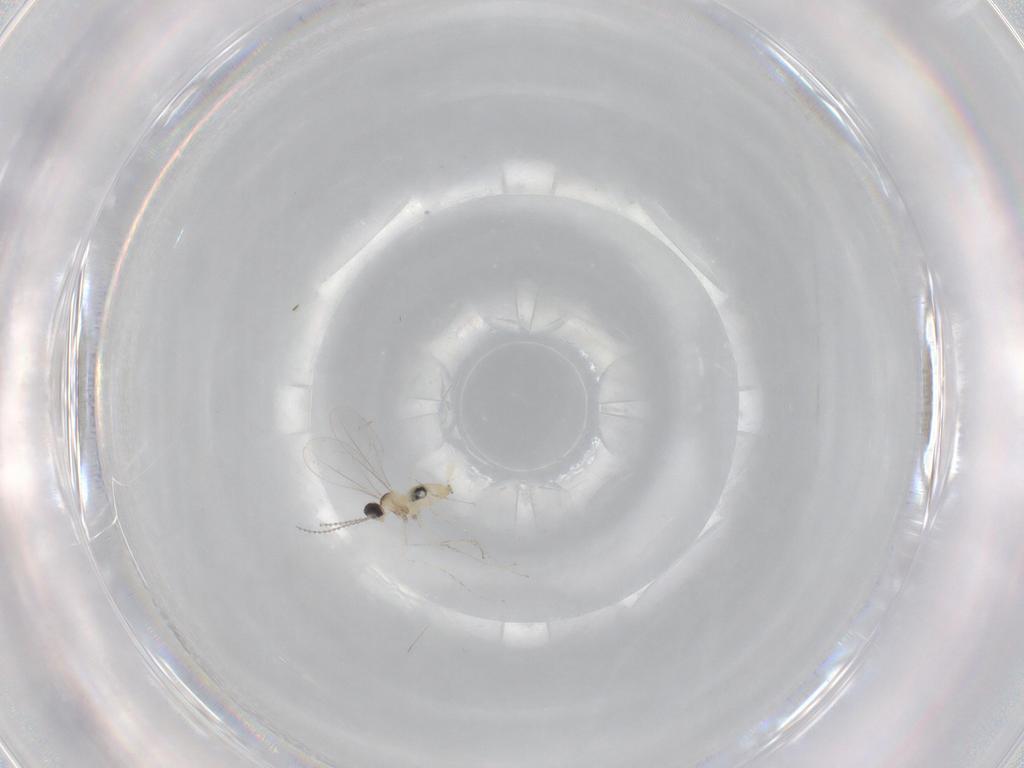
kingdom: Animalia
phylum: Arthropoda
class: Insecta
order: Diptera
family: Cecidomyiidae
